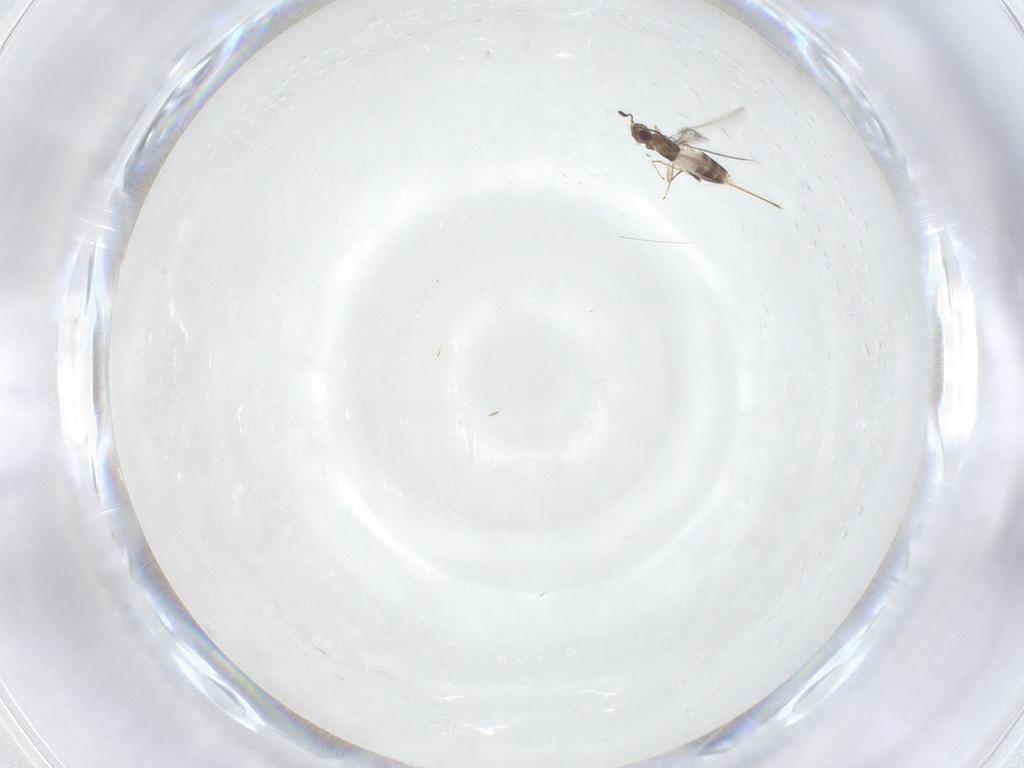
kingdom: Animalia
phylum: Arthropoda
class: Insecta
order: Hymenoptera
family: Mymaridae
